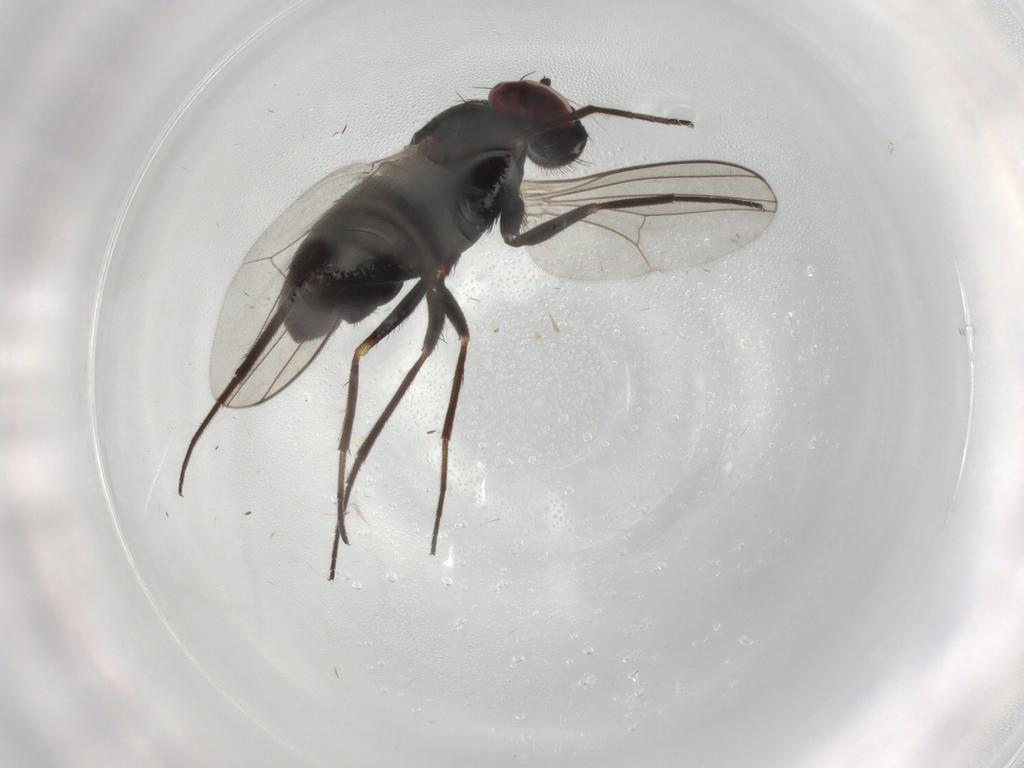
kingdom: Animalia
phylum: Arthropoda
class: Insecta
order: Diptera
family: Dolichopodidae
